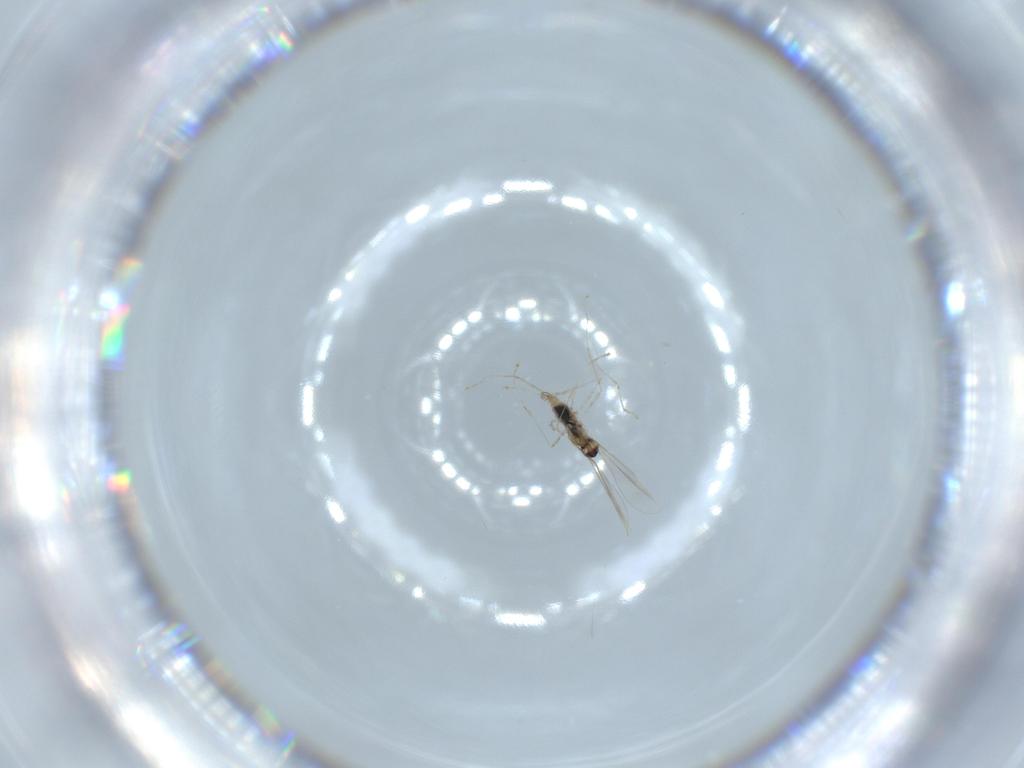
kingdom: Animalia
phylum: Arthropoda
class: Insecta
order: Diptera
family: Cecidomyiidae
